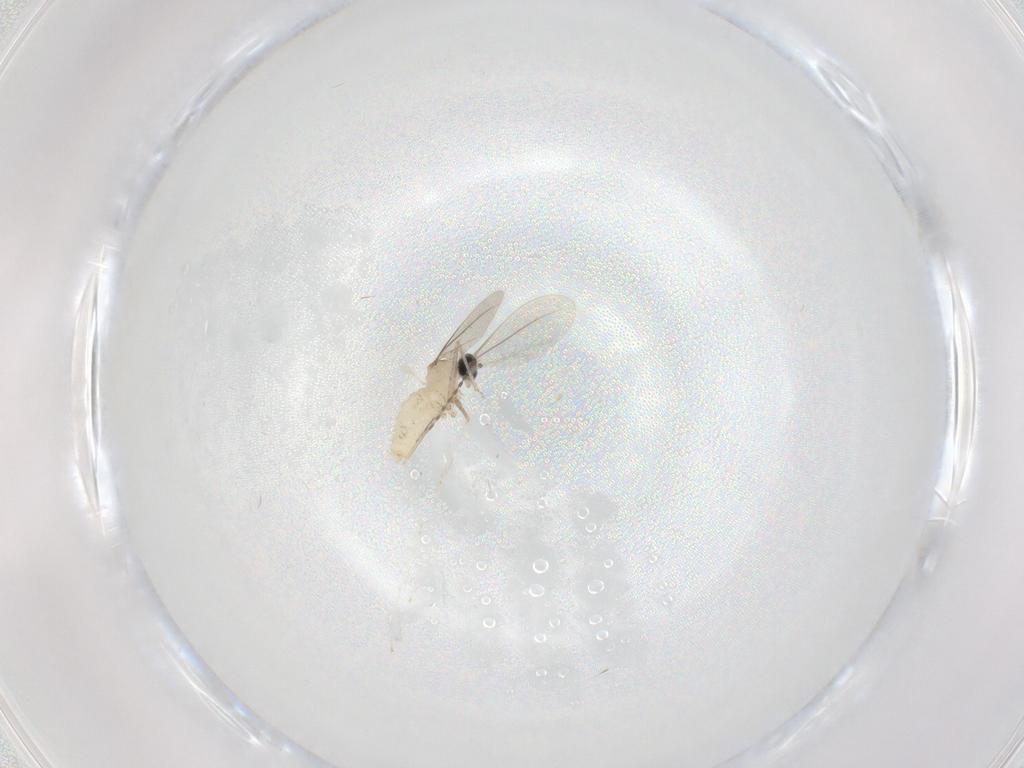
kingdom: Animalia
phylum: Arthropoda
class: Insecta
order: Diptera
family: Cecidomyiidae
